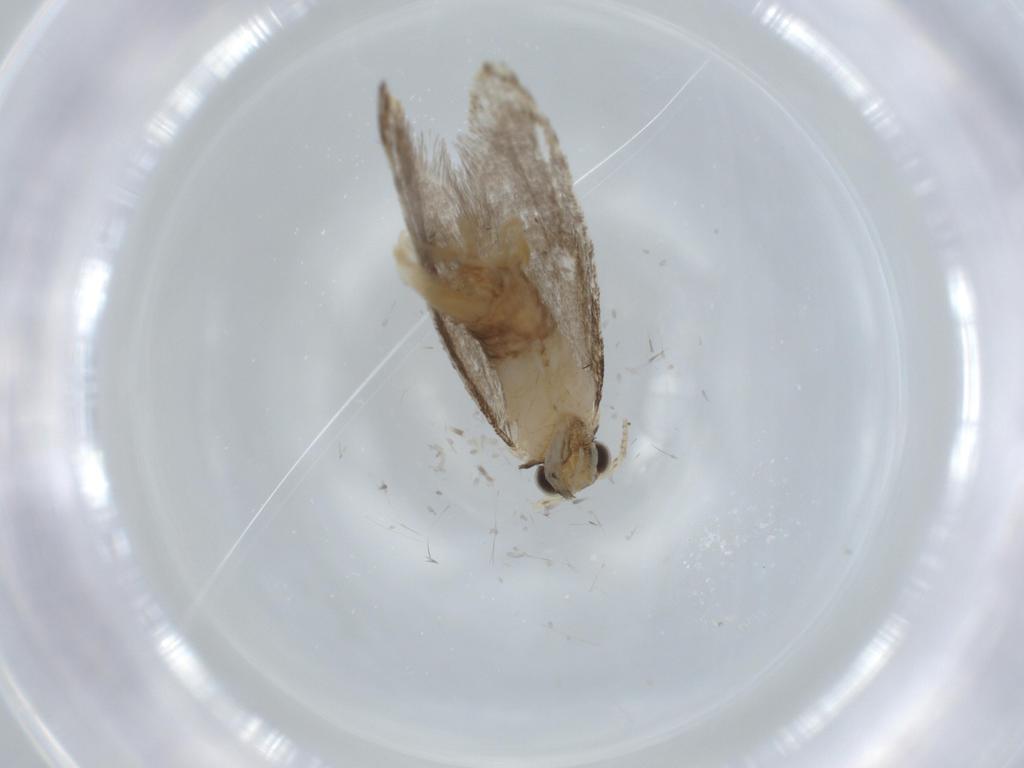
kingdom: Animalia
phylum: Arthropoda
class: Insecta
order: Lepidoptera
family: Tineidae
